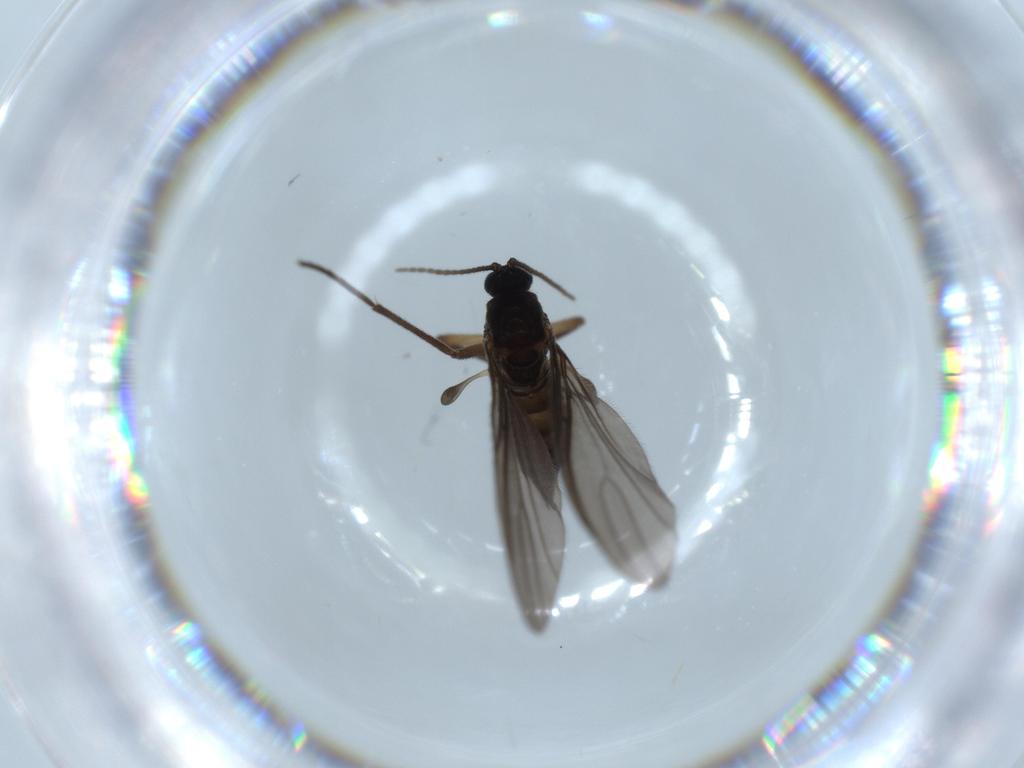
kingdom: Animalia
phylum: Arthropoda
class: Insecta
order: Diptera
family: Sciaridae
